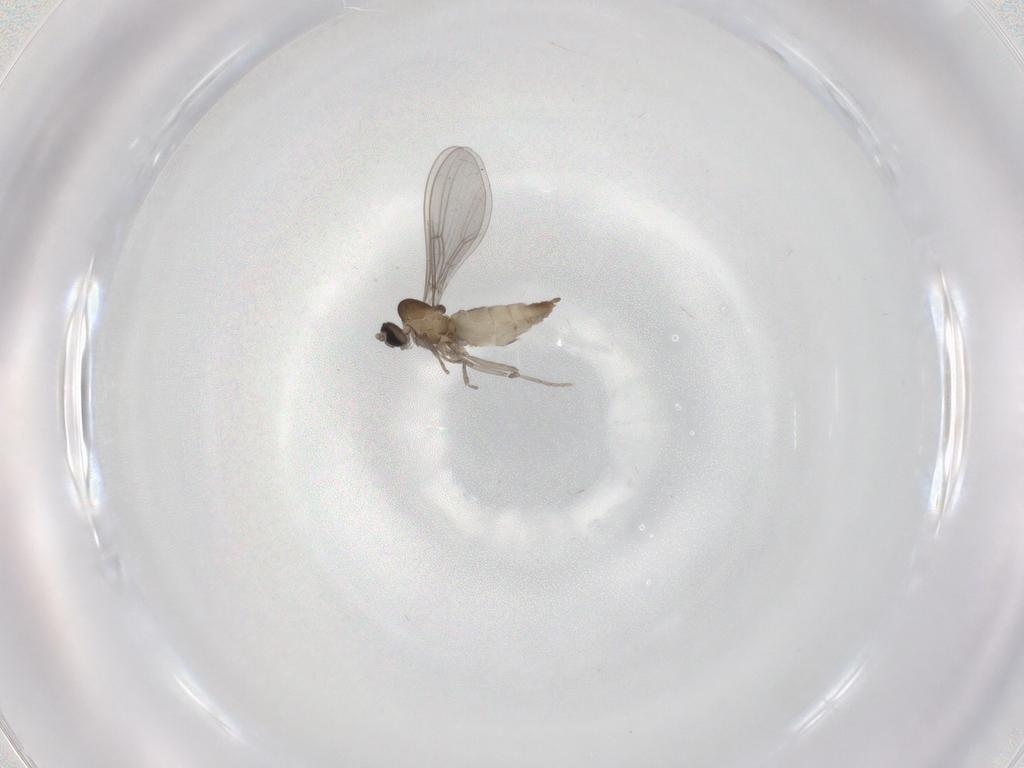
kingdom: Animalia
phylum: Arthropoda
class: Insecta
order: Diptera
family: Cecidomyiidae
